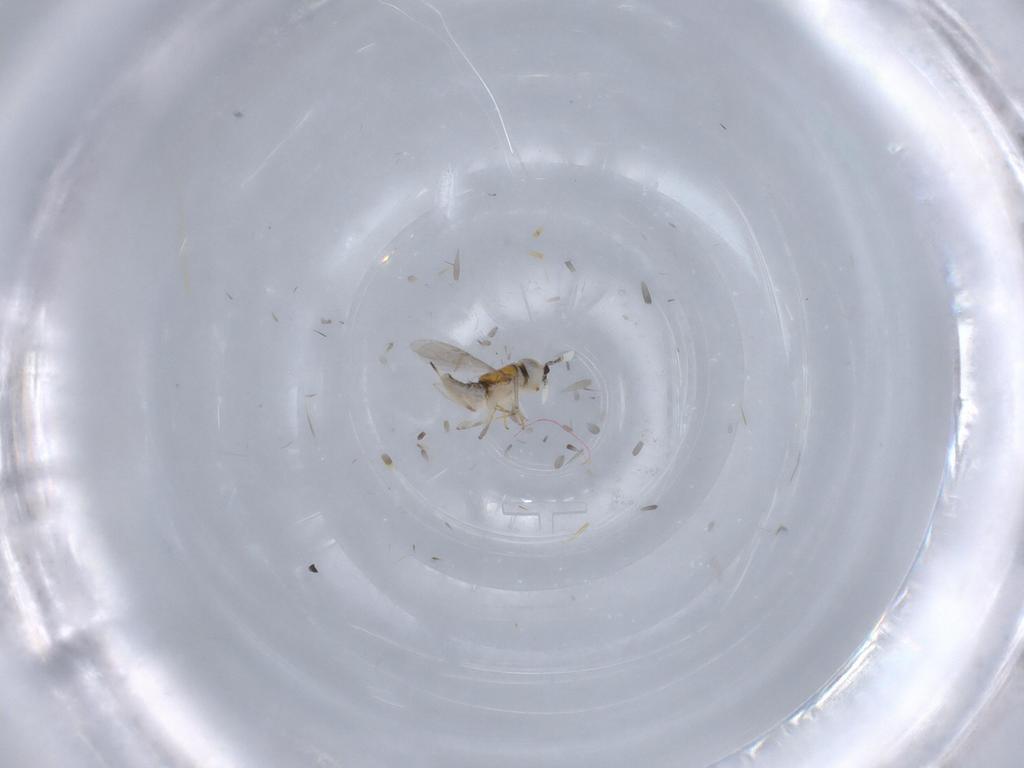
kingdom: Animalia
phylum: Arthropoda
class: Insecta
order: Hymenoptera
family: Encyrtidae
